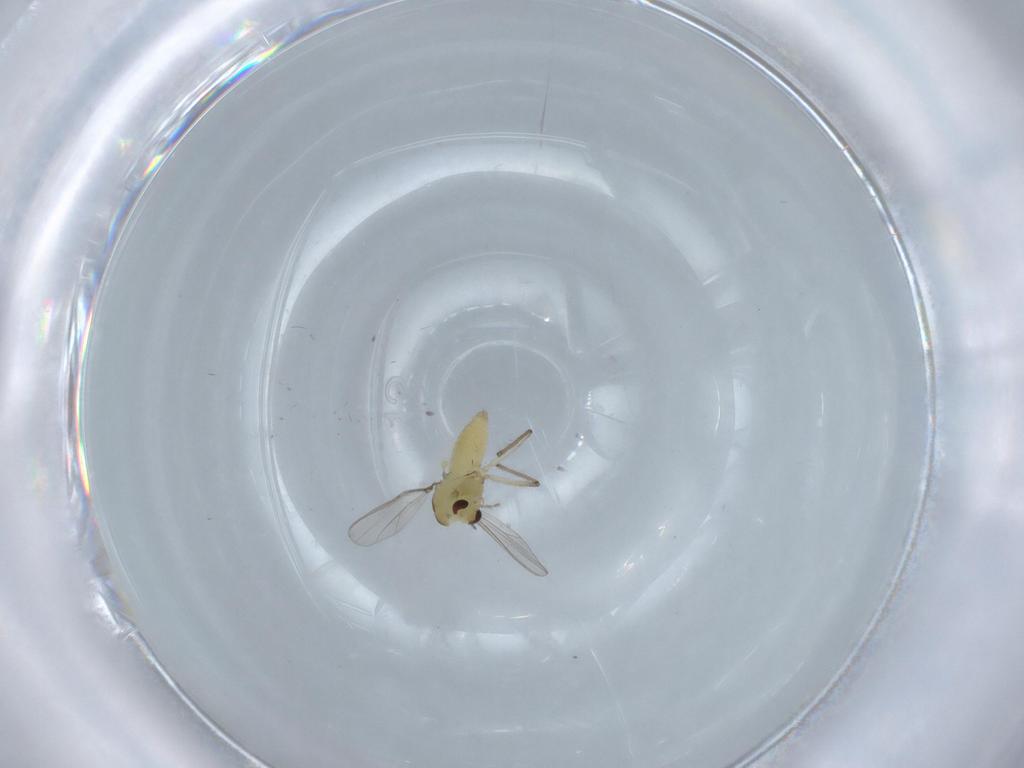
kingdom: Animalia
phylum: Arthropoda
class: Insecta
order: Diptera
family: Chironomidae
